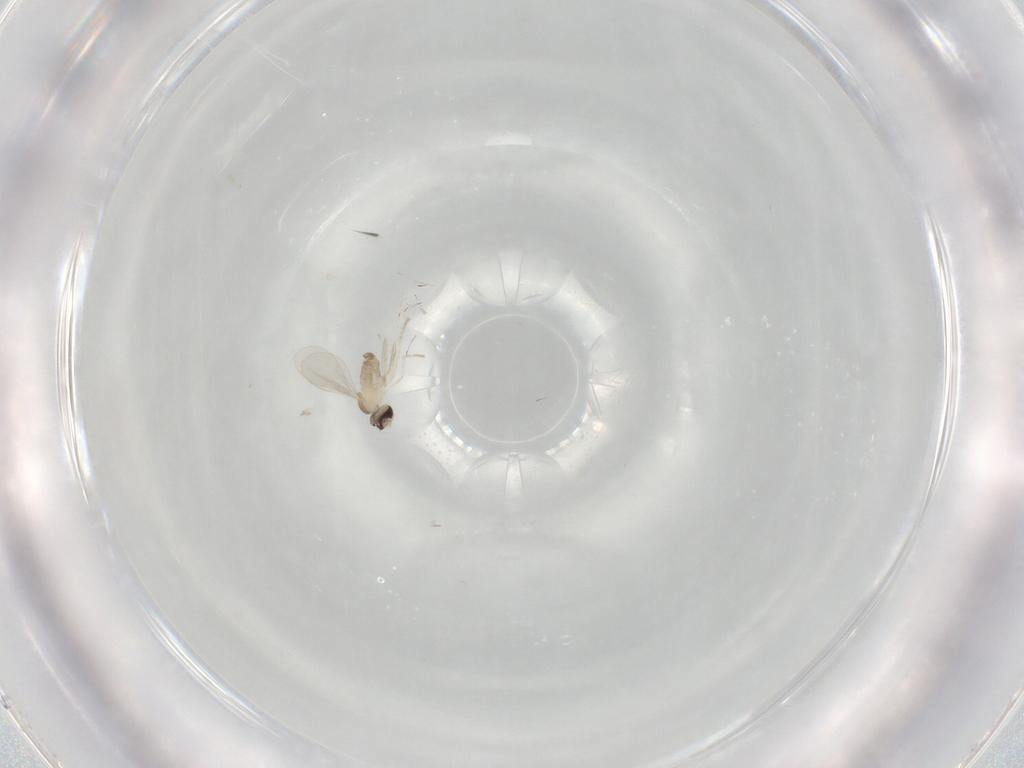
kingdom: Animalia
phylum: Arthropoda
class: Insecta
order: Diptera
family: Cecidomyiidae
